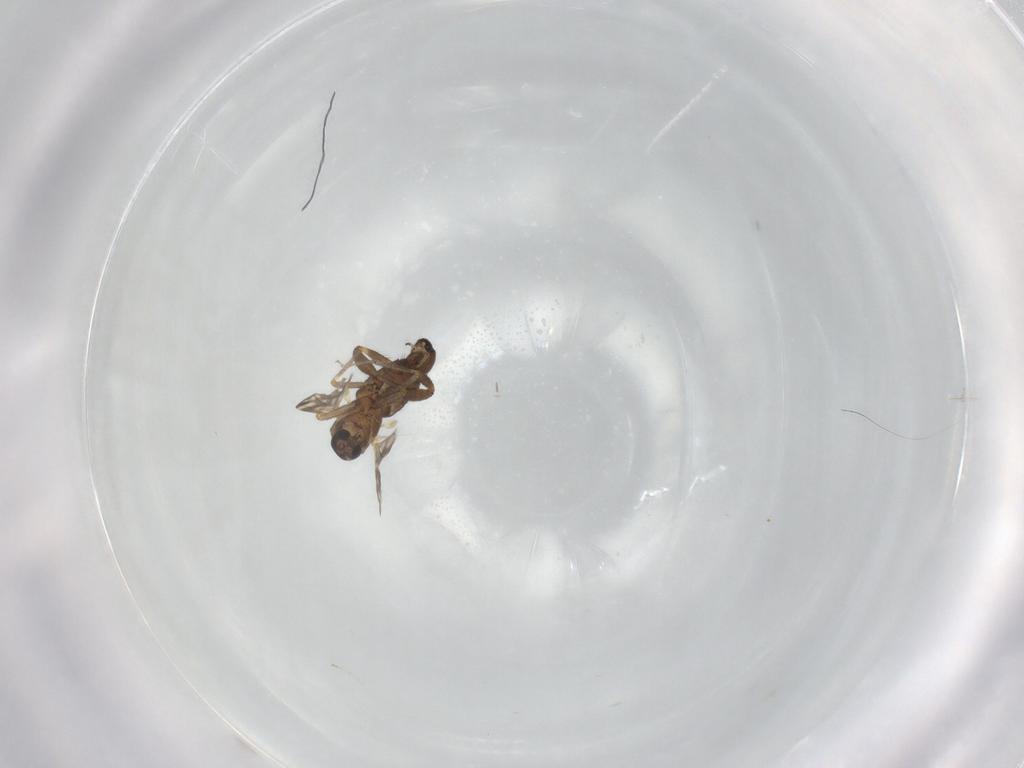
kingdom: Animalia
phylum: Arthropoda
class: Insecta
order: Diptera
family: Ceratopogonidae
